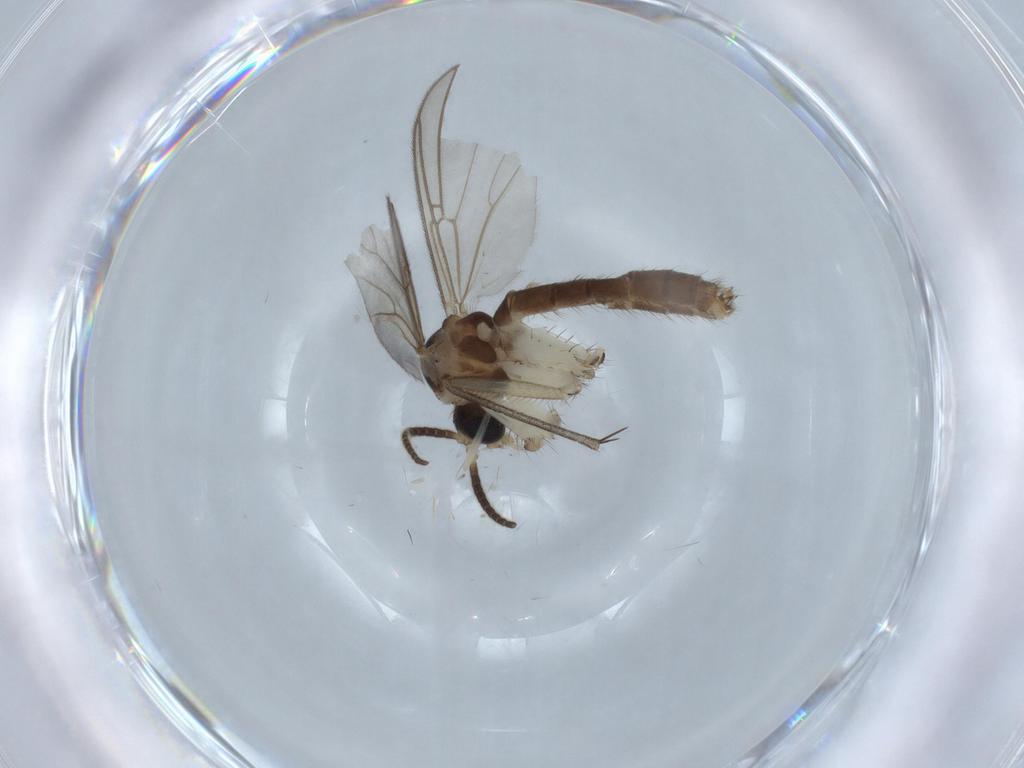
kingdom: Animalia
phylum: Arthropoda
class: Insecta
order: Diptera
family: Mycetophilidae
